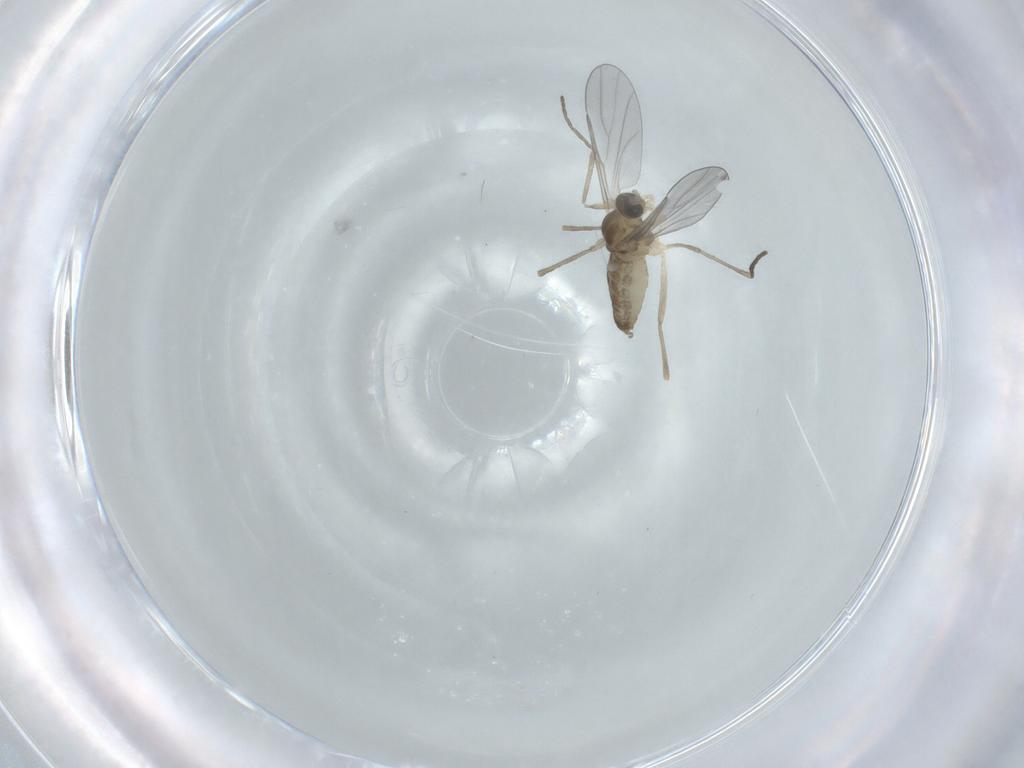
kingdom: Animalia
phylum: Arthropoda
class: Insecta
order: Diptera
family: Cecidomyiidae
